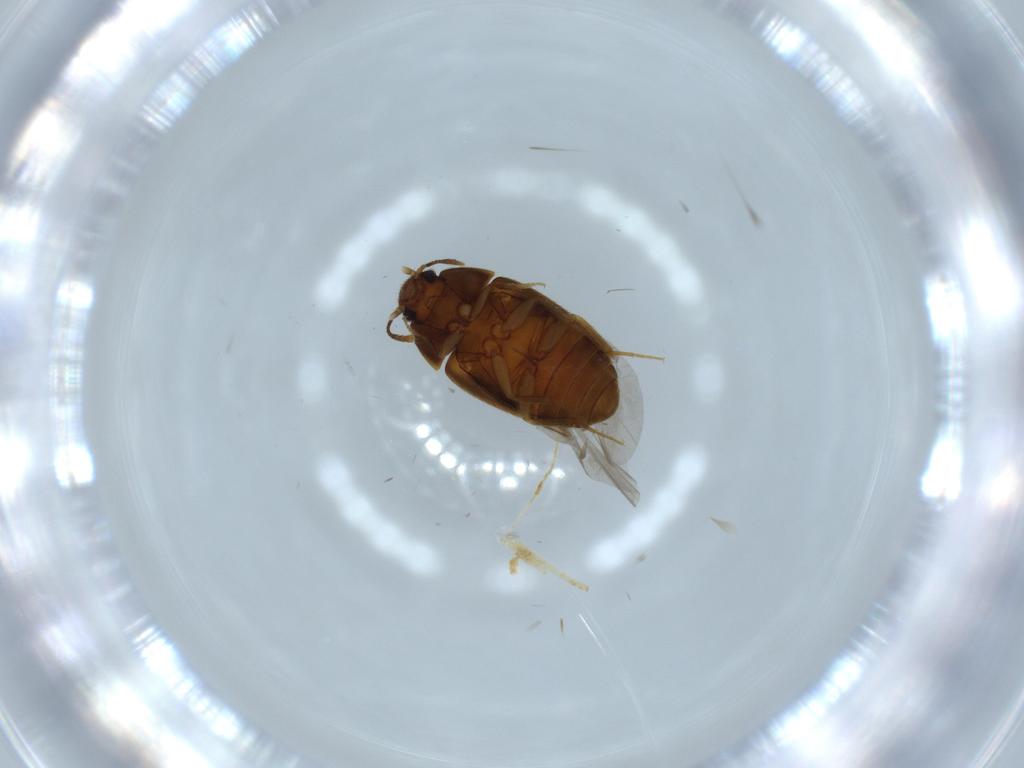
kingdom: Animalia
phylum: Arthropoda
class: Insecta
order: Coleoptera
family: Mycetophagidae
